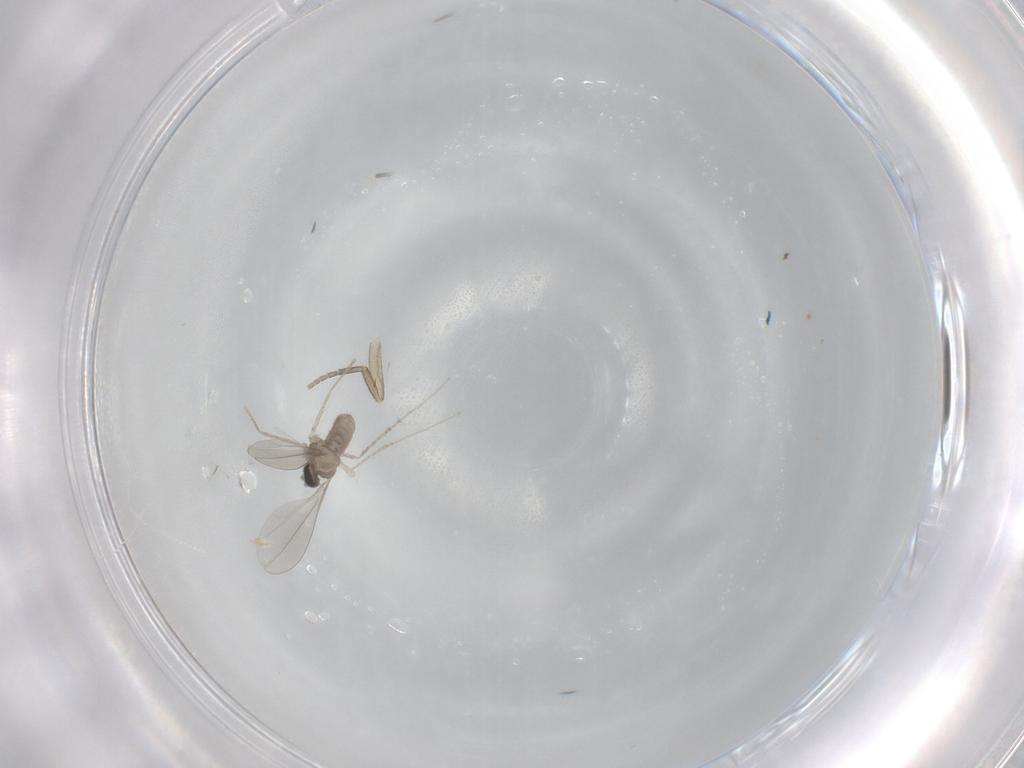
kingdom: Animalia
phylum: Arthropoda
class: Insecta
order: Diptera
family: Phoridae
